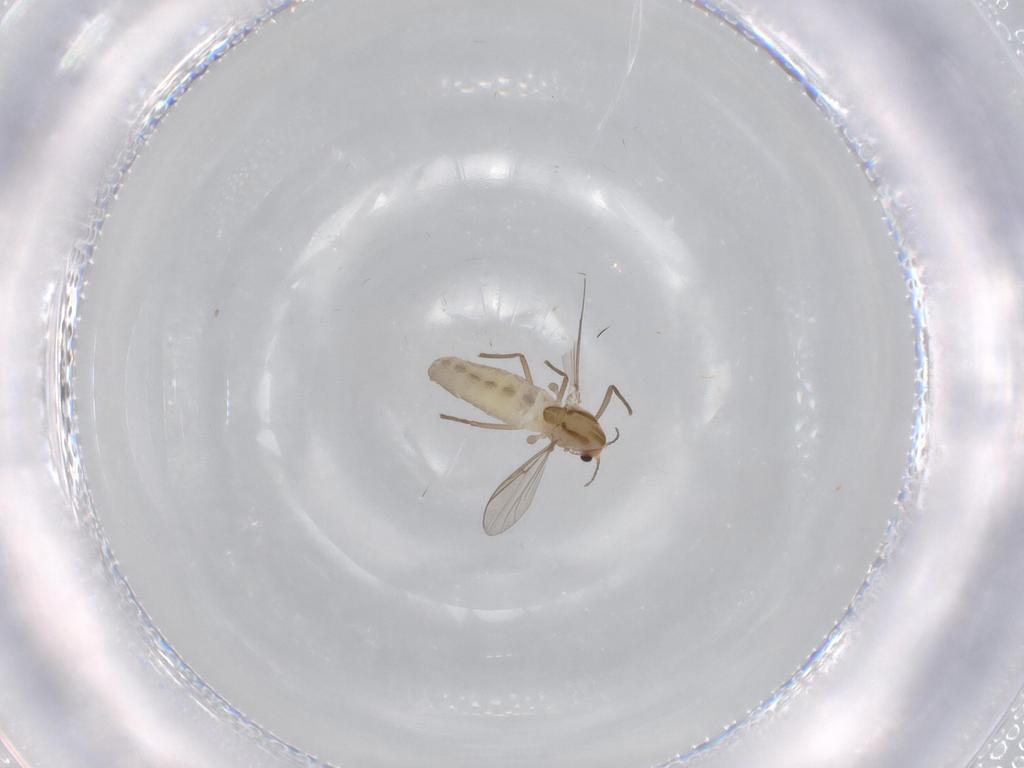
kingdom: Animalia
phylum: Arthropoda
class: Insecta
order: Diptera
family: Chironomidae
